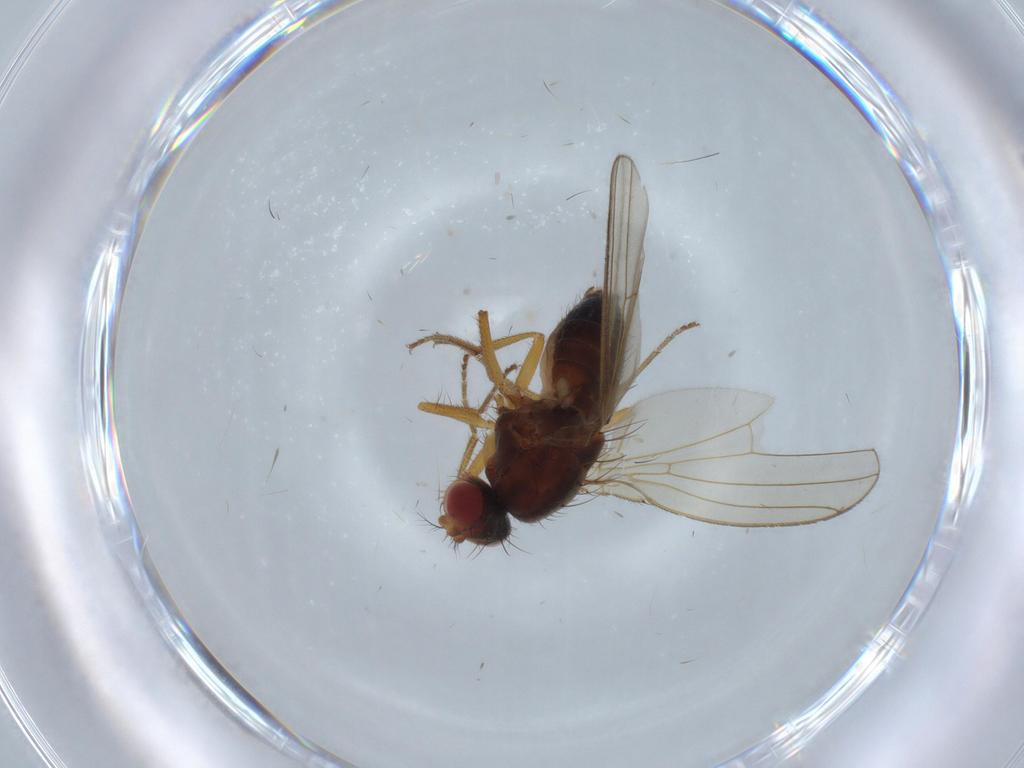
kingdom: Animalia
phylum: Arthropoda
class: Insecta
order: Diptera
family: Drosophilidae
